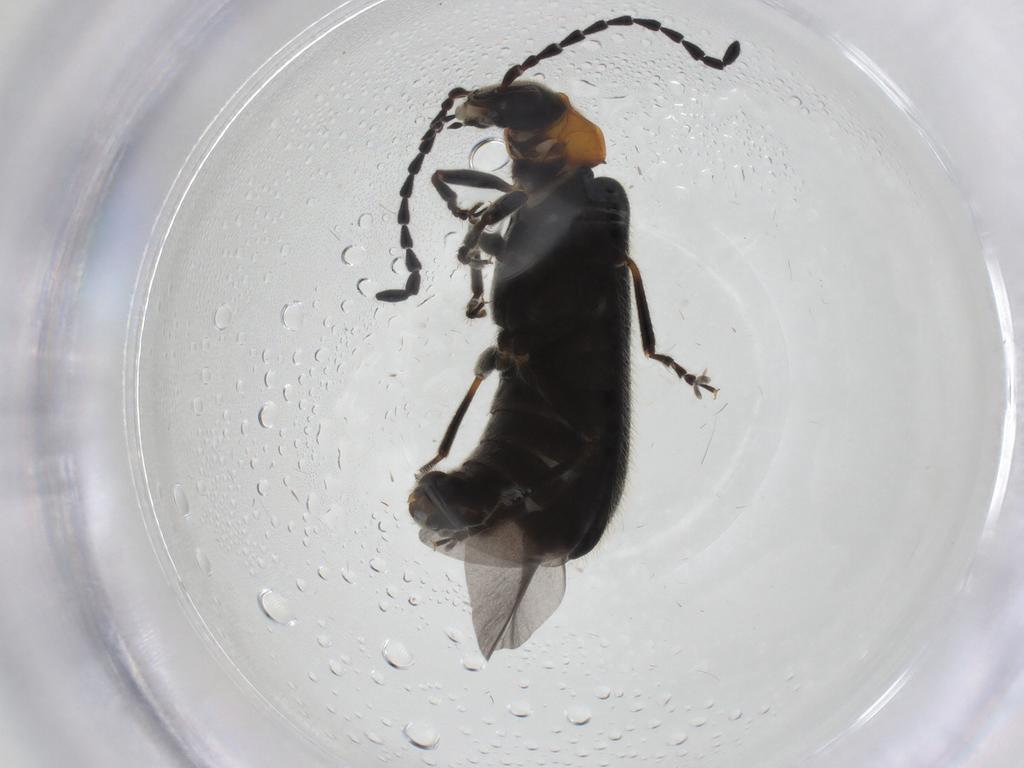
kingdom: Animalia
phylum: Arthropoda
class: Insecta
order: Coleoptera
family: Cantharidae
